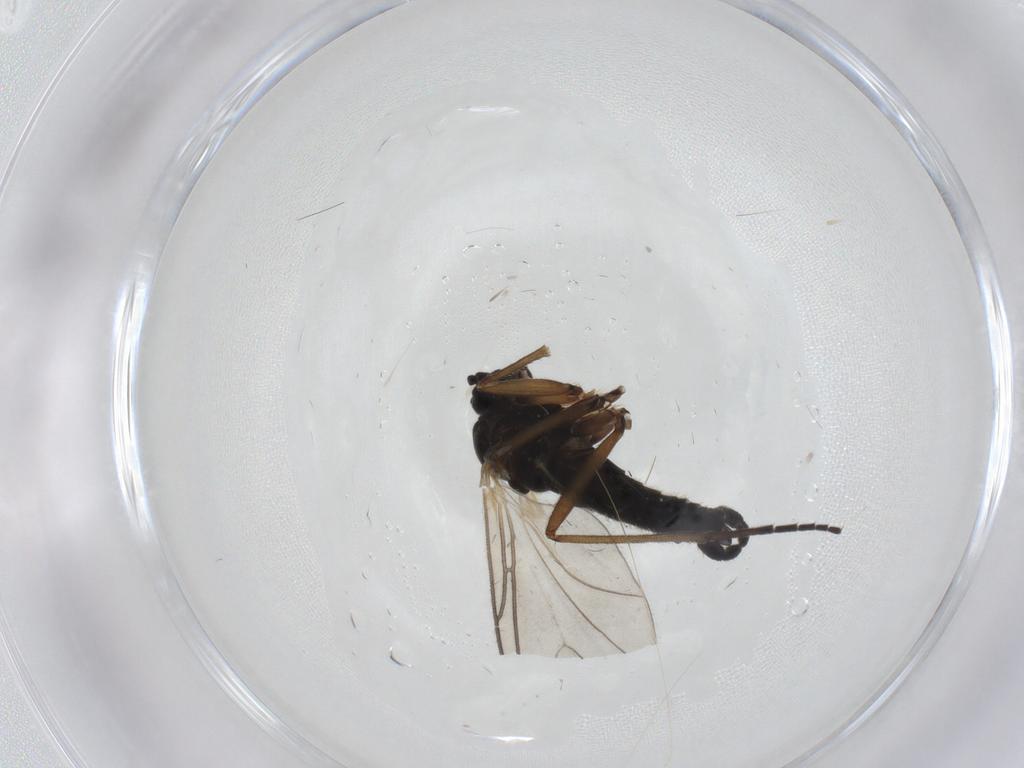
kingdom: Animalia
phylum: Arthropoda
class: Insecta
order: Diptera
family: Sciaridae
